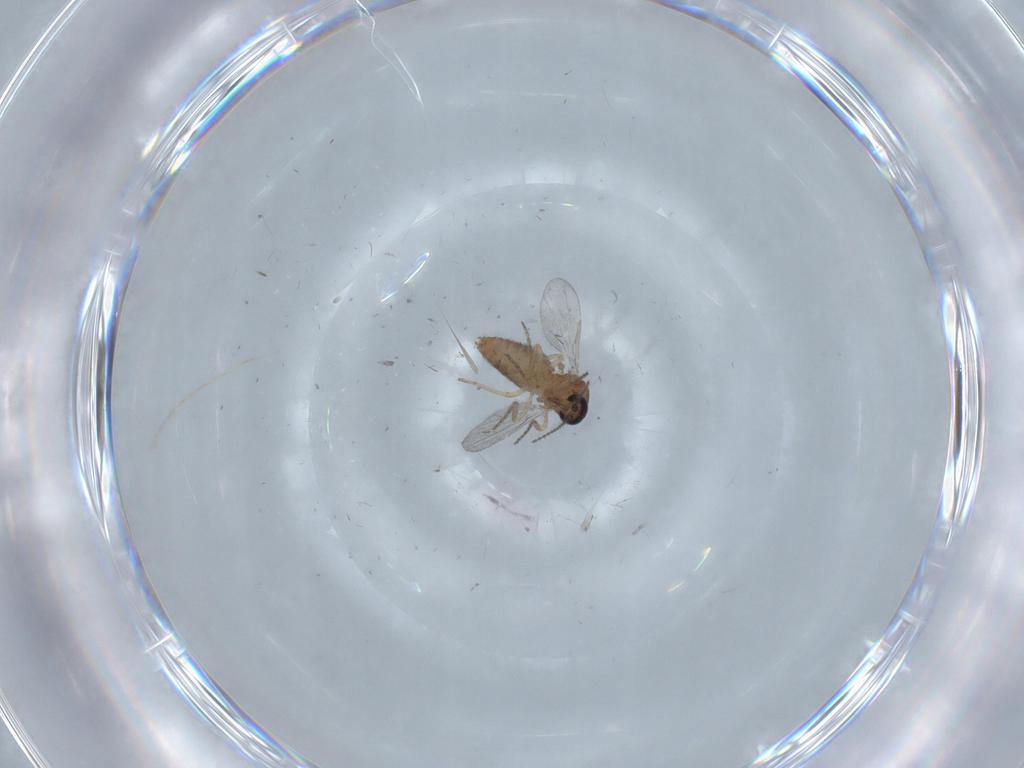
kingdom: Animalia
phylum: Arthropoda
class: Insecta
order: Diptera
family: Ceratopogonidae
